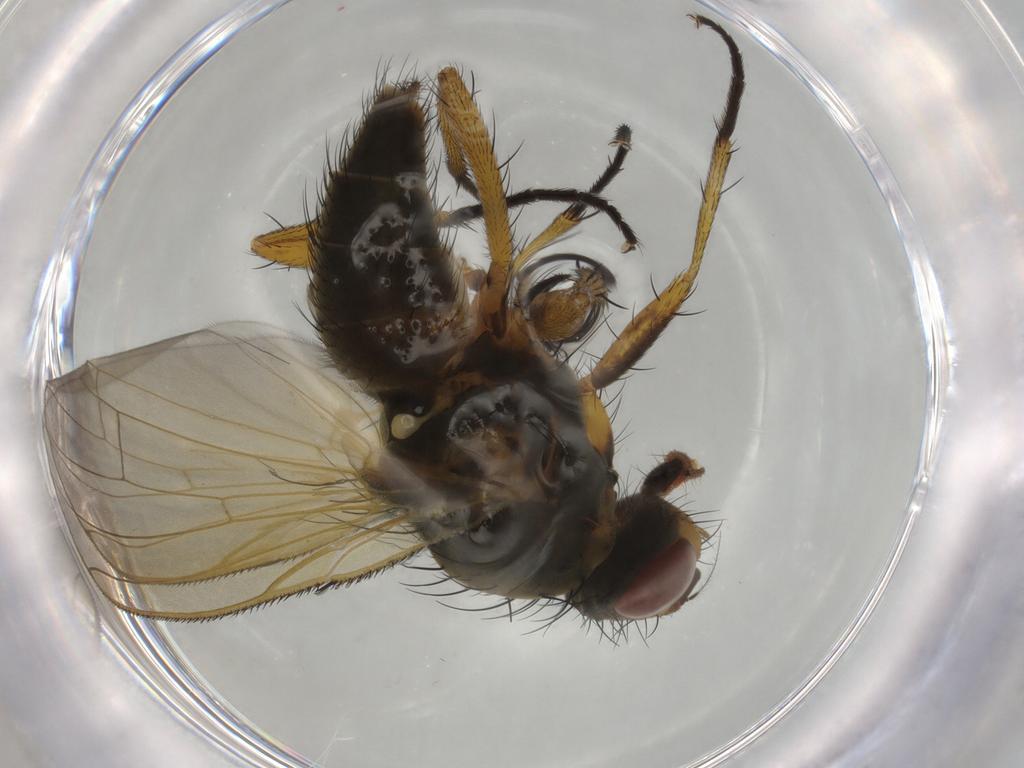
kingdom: Animalia
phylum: Arthropoda
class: Insecta
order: Diptera
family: Anthomyiidae
